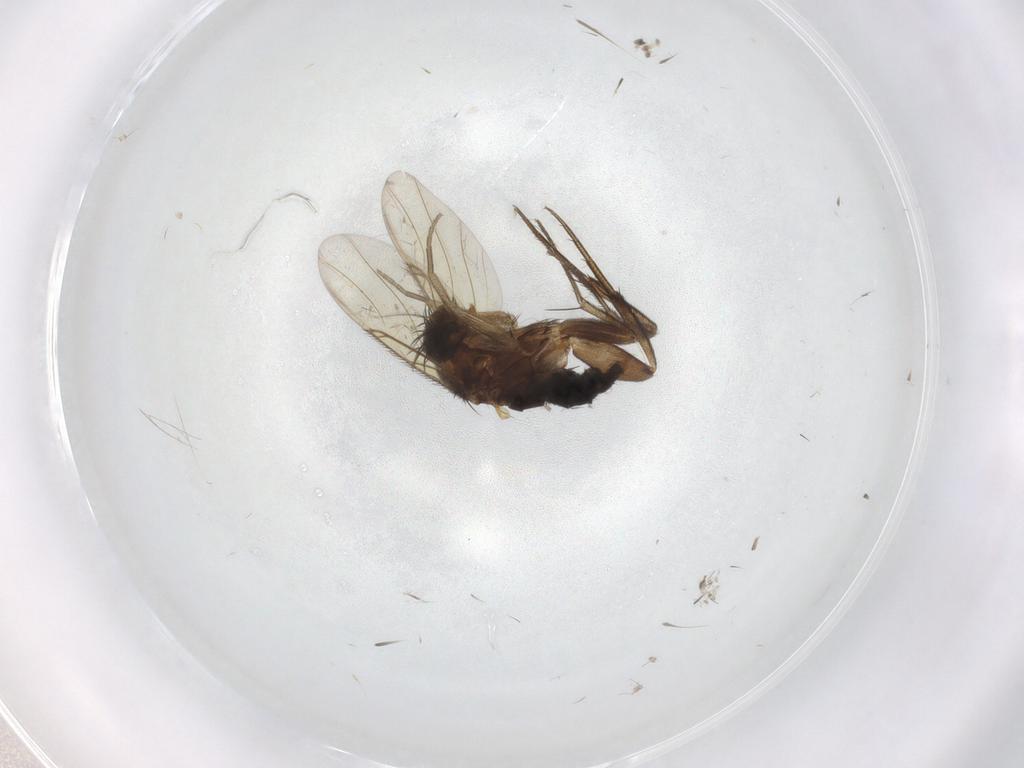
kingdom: Animalia
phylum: Arthropoda
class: Insecta
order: Diptera
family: Phoridae
